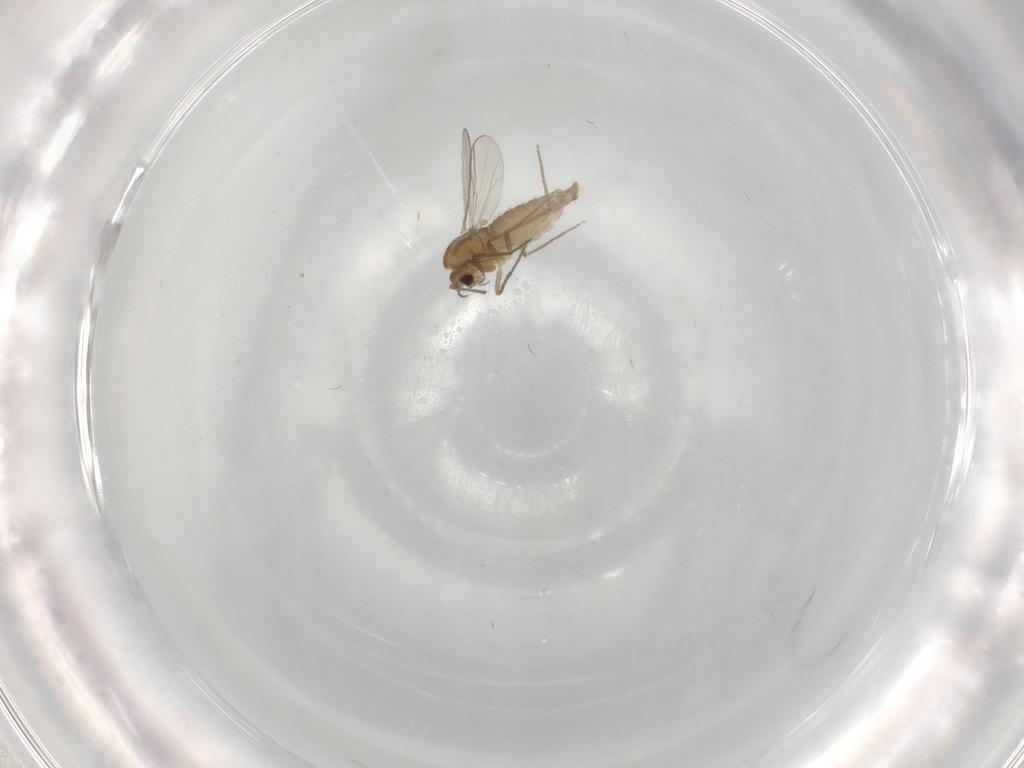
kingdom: Animalia
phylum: Arthropoda
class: Insecta
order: Diptera
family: Chironomidae
